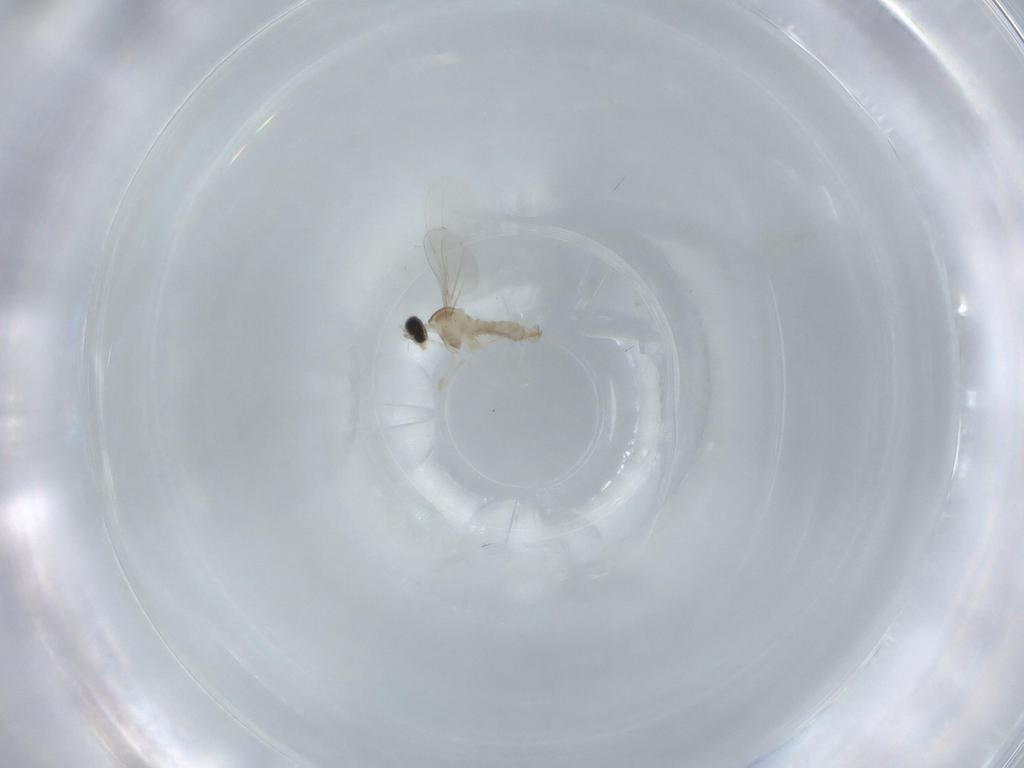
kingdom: Animalia
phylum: Arthropoda
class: Insecta
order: Diptera
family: Cecidomyiidae
